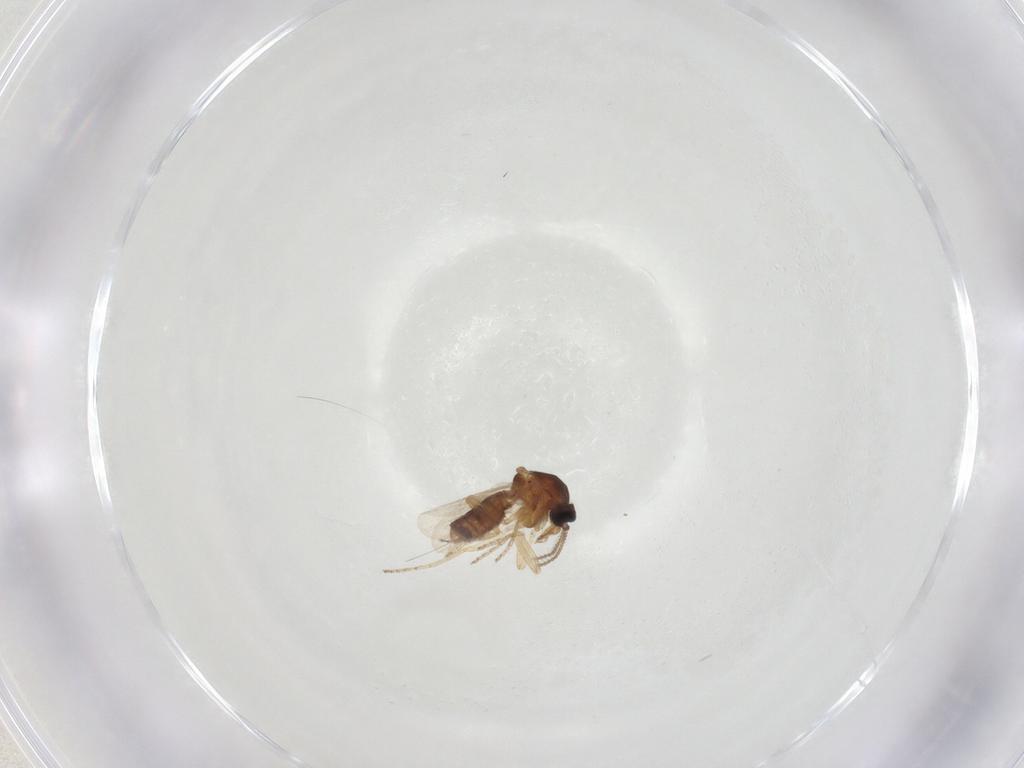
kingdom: Animalia
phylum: Arthropoda
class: Insecta
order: Diptera
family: Ceratopogonidae
